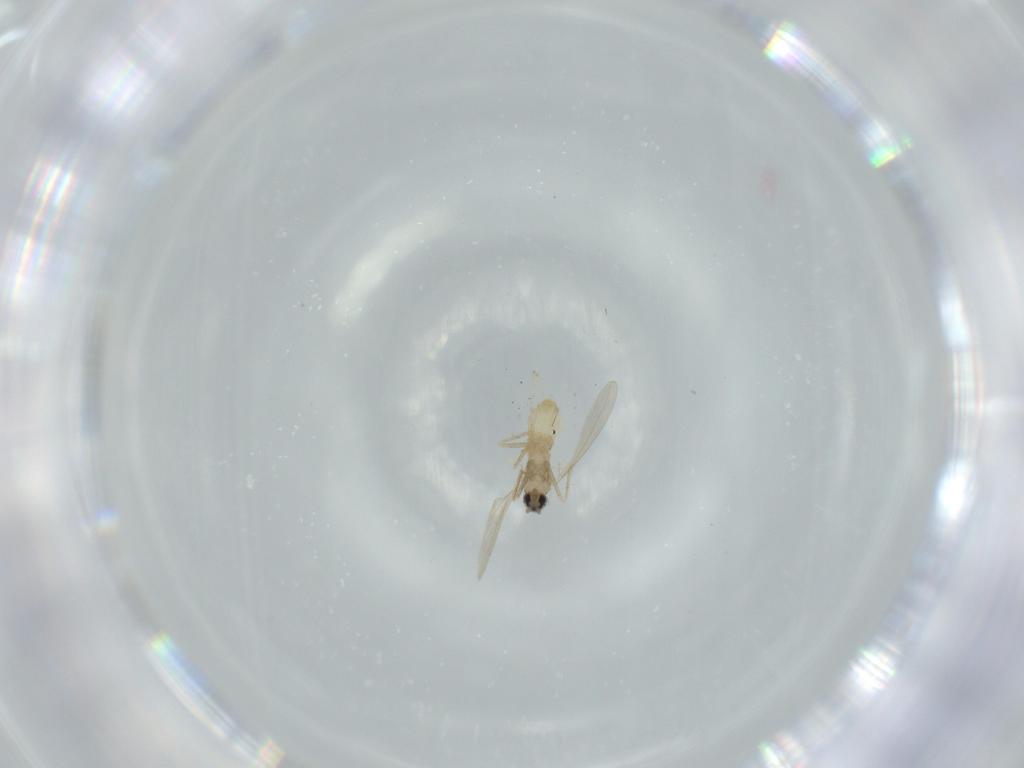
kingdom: Animalia
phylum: Arthropoda
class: Insecta
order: Diptera
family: Cecidomyiidae
